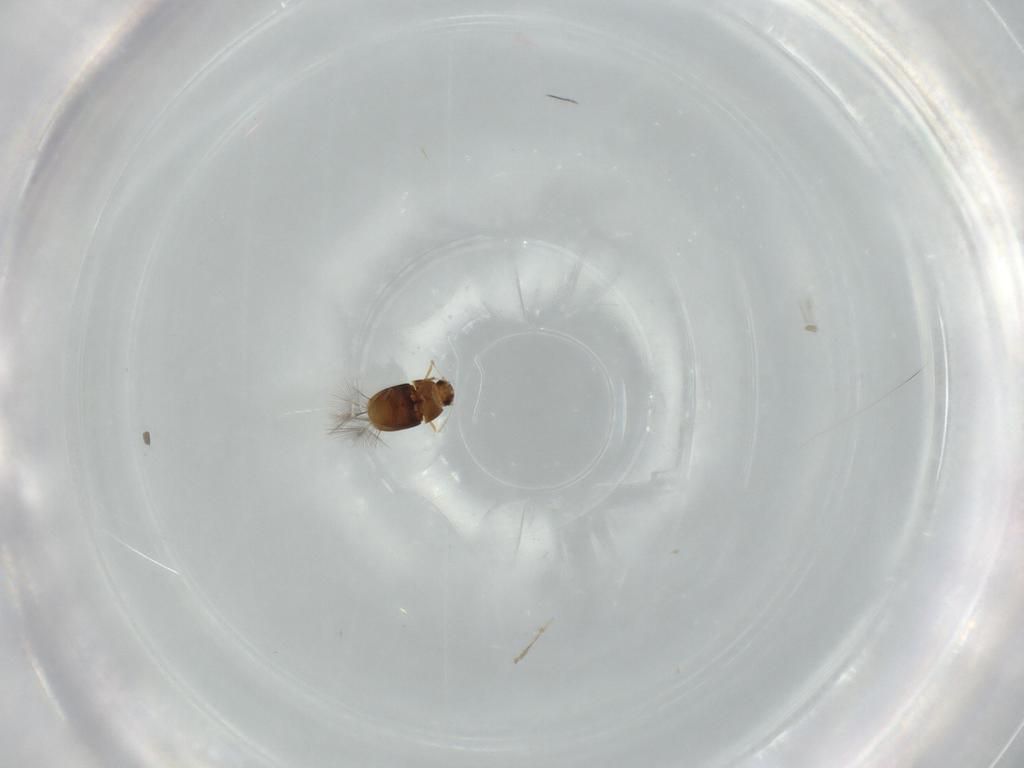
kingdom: Animalia
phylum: Arthropoda
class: Insecta
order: Coleoptera
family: Ptiliidae
